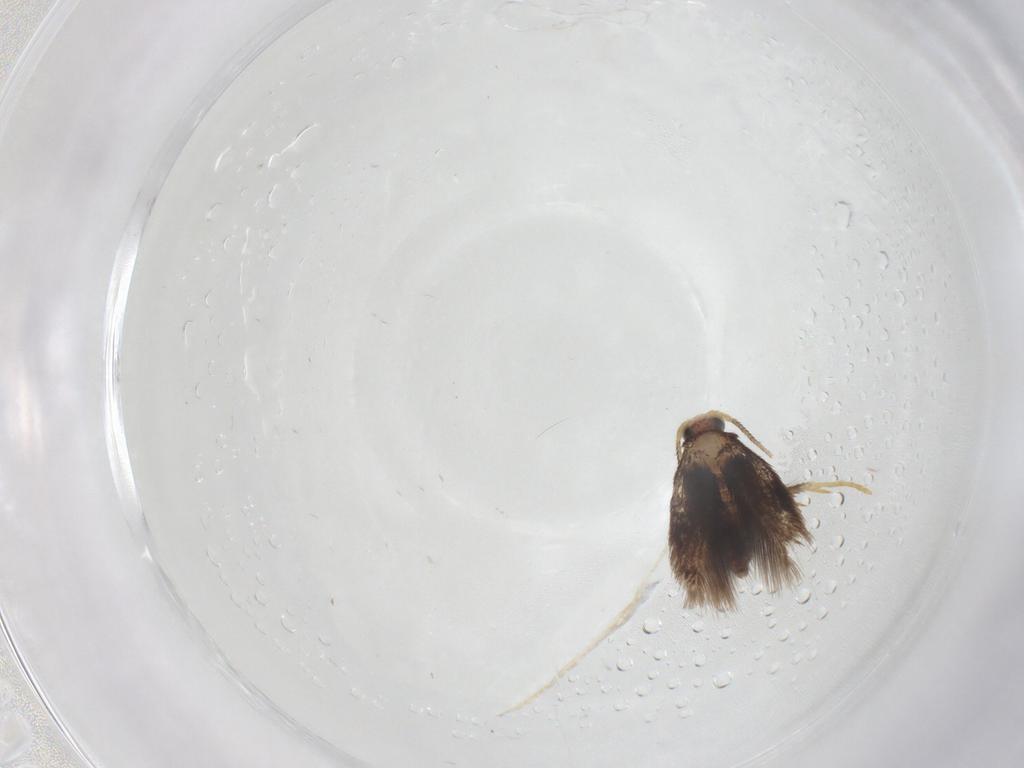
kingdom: Animalia
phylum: Arthropoda
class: Insecta
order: Lepidoptera
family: Nepticulidae
